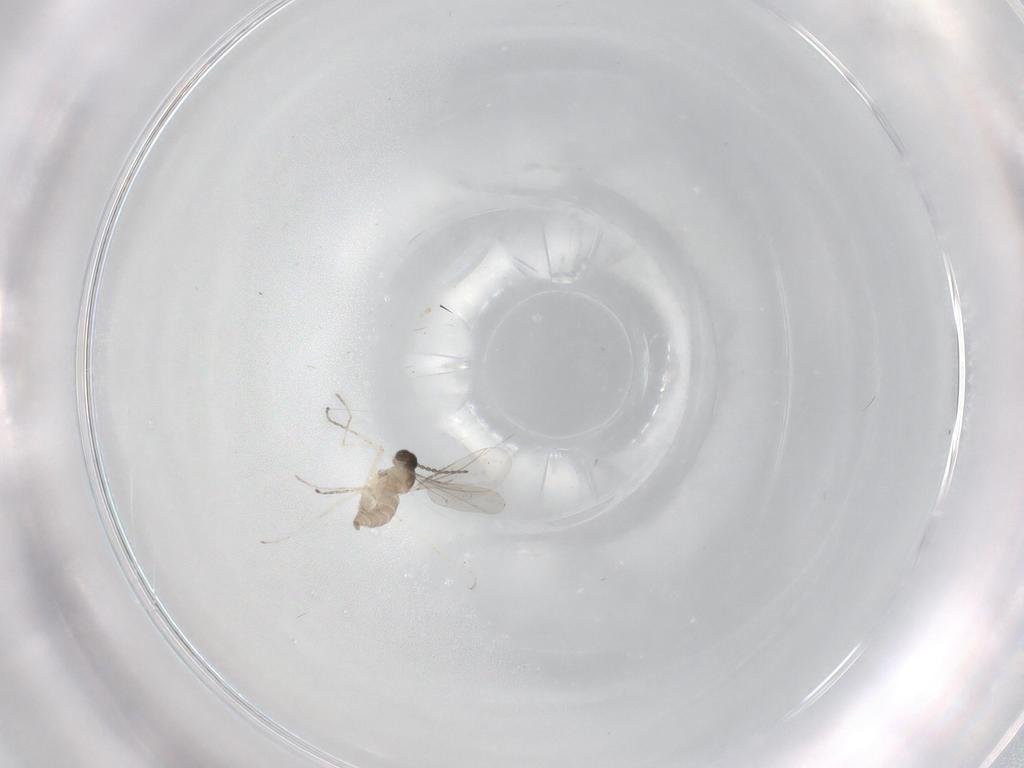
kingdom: Animalia
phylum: Arthropoda
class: Insecta
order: Diptera
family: Cecidomyiidae
